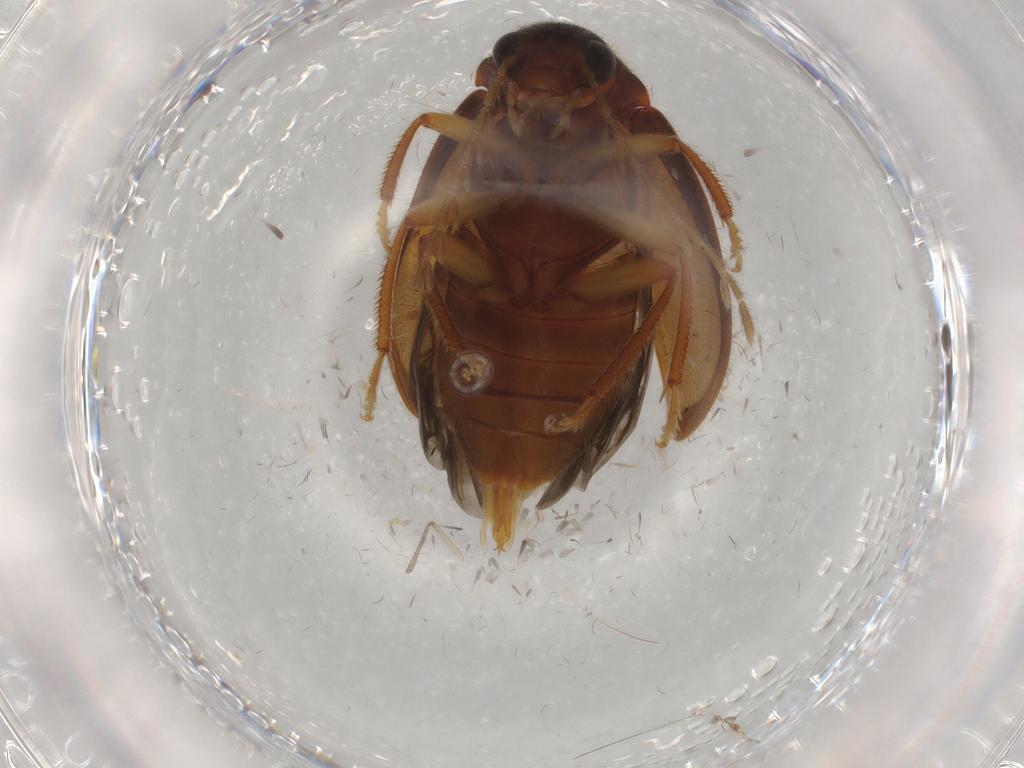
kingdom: Animalia
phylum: Arthropoda
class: Insecta
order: Coleoptera
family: Ptilodactylidae
